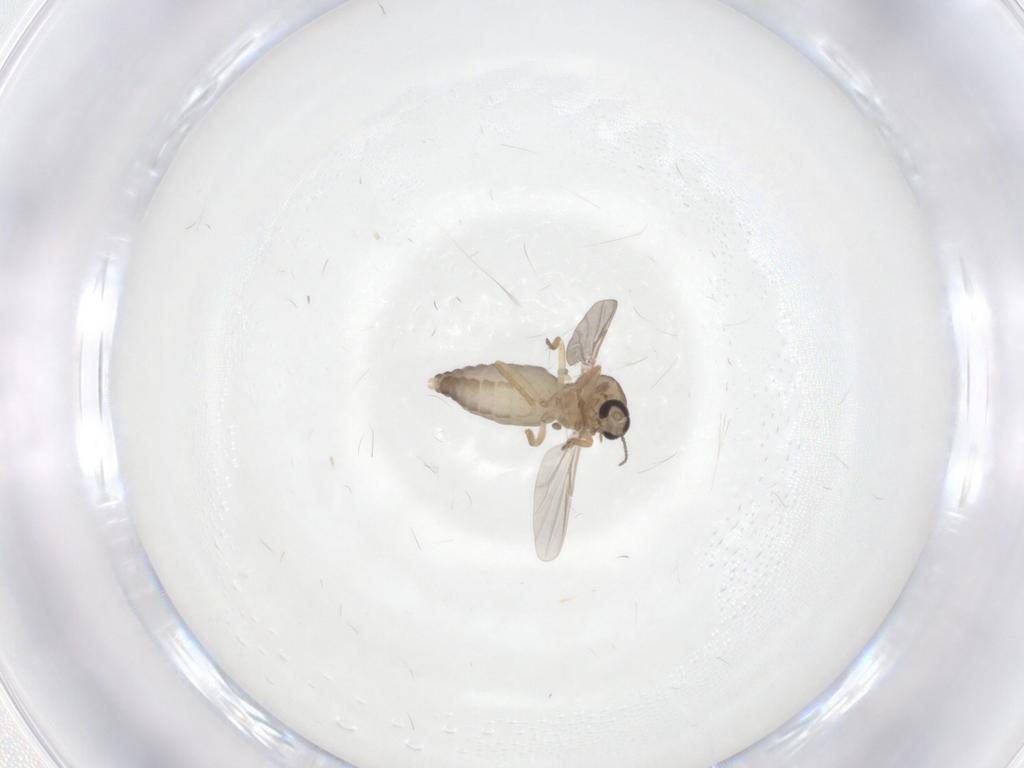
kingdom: Animalia
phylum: Arthropoda
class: Insecta
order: Diptera
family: Ceratopogonidae
